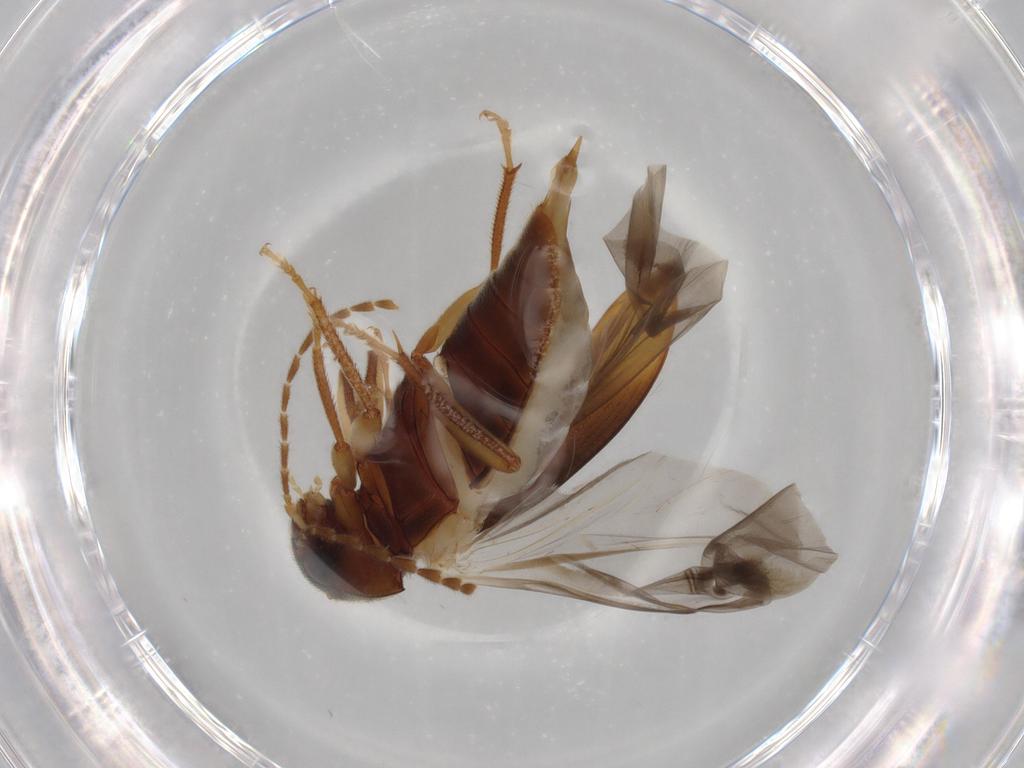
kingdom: Animalia
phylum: Arthropoda
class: Insecta
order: Coleoptera
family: Ptilodactylidae
